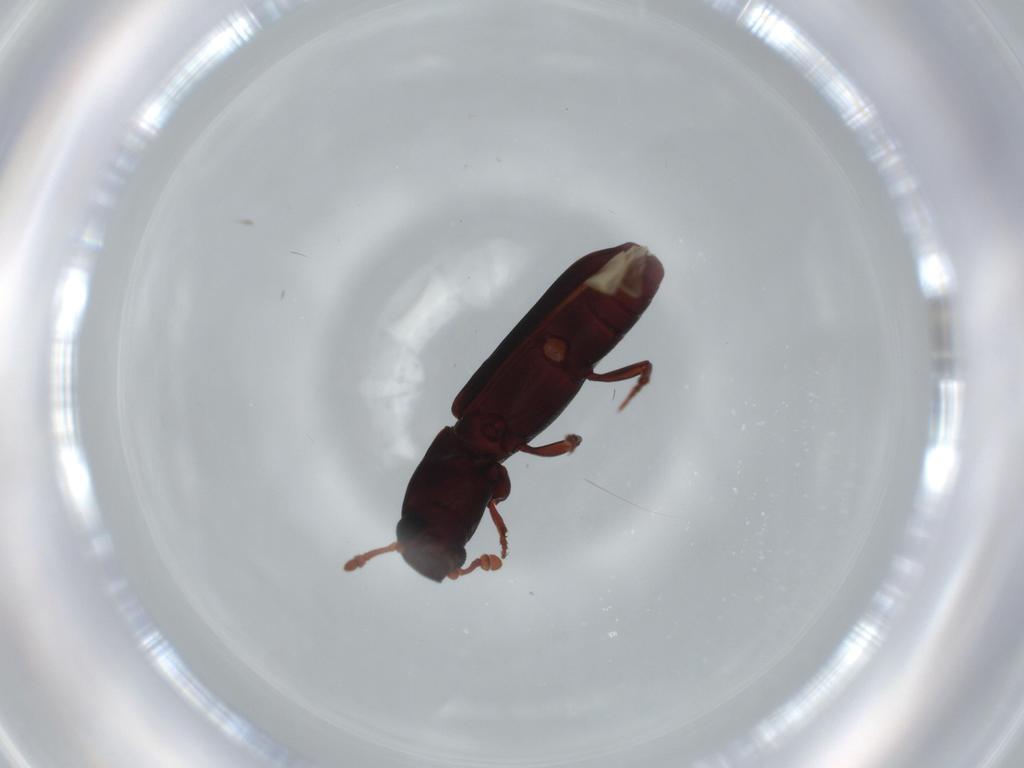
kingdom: Animalia
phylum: Arthropoda
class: Insecta
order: Coleoptera
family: Bothrideridae
